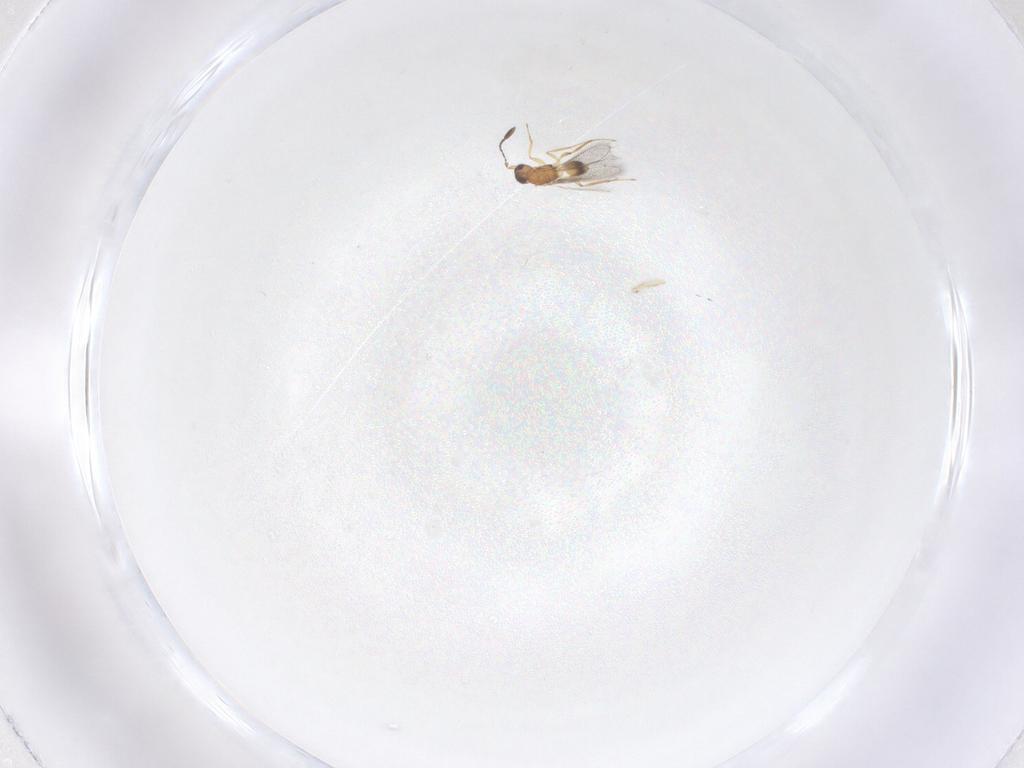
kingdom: Animalia
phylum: Arthropoda
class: Insecta
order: Hymenoptera
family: Mymaridae
